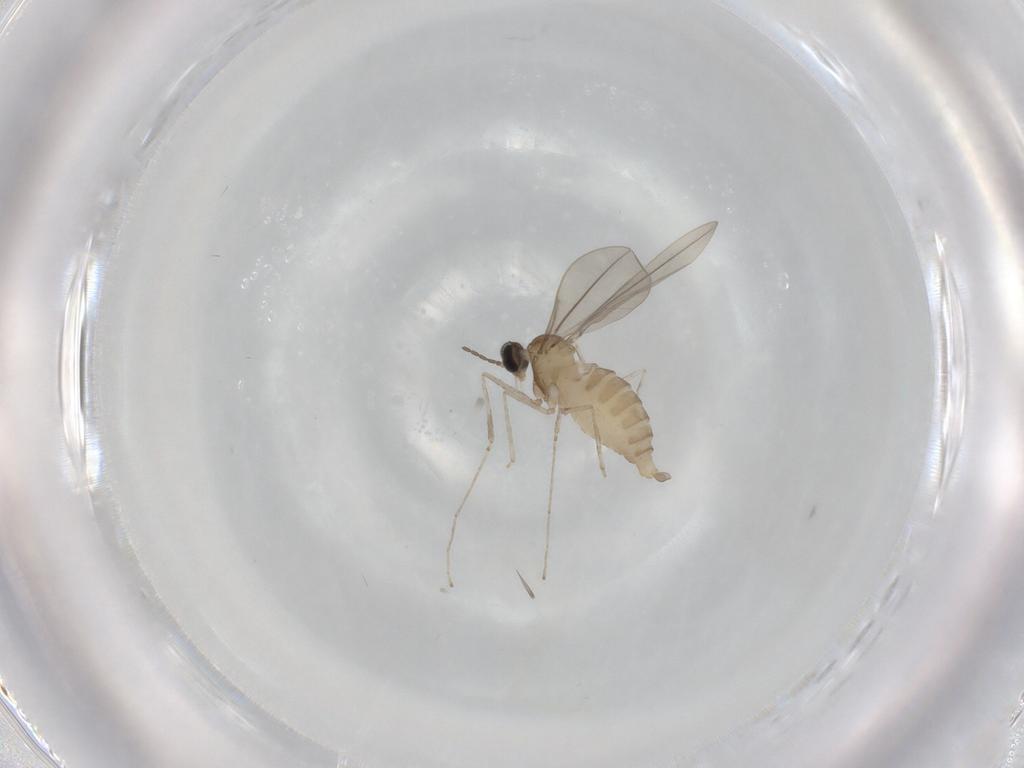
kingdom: Animalia
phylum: Arthropoda
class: Insecta
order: Diptera
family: Cecidomyiidae
